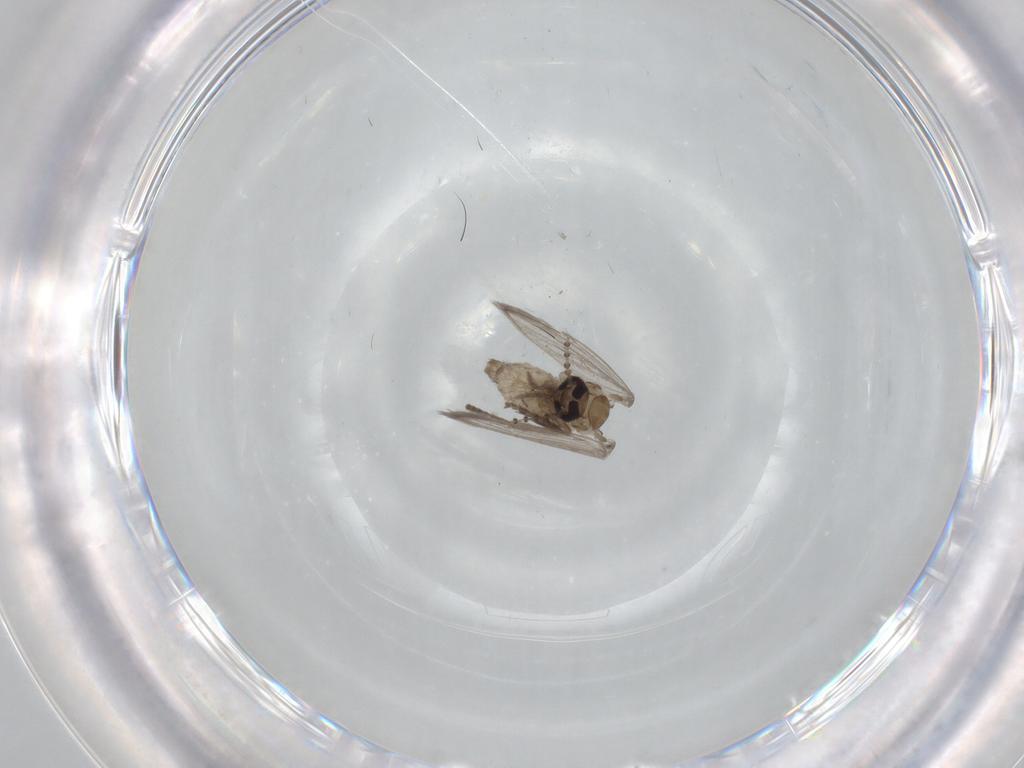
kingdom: Animalia
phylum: Arthropoda
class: Insecta
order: Diptera
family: Psychodidae
